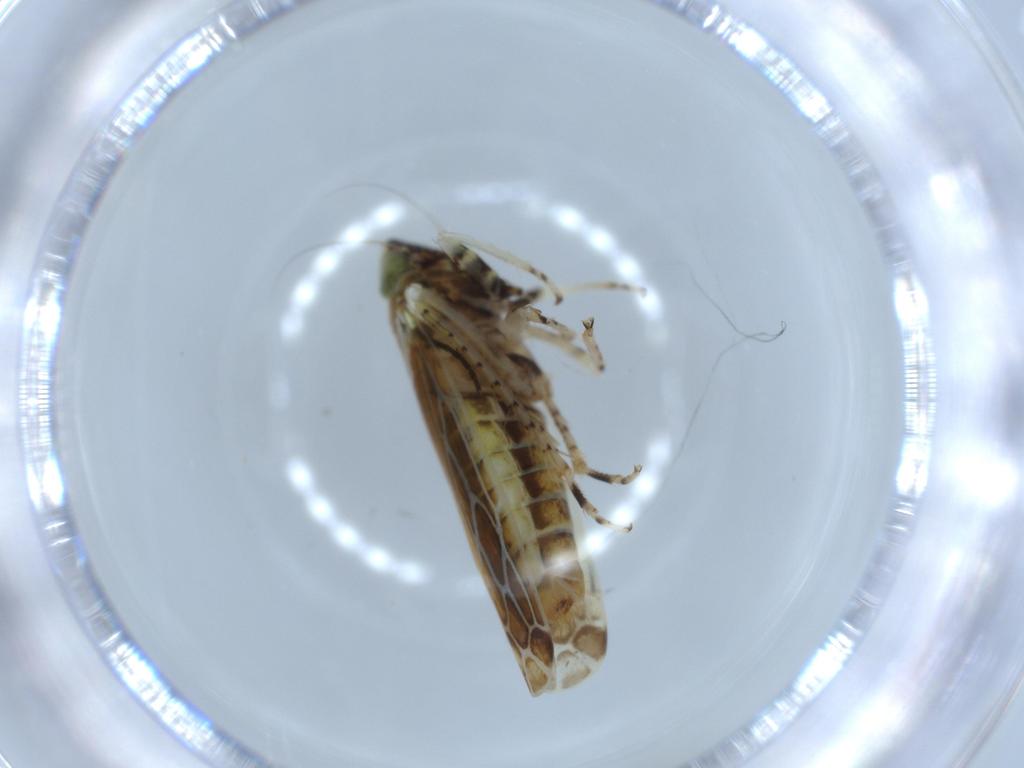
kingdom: Animalia
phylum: Arthropoda
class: Insecta
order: Hemiptera
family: Cicadellidae
